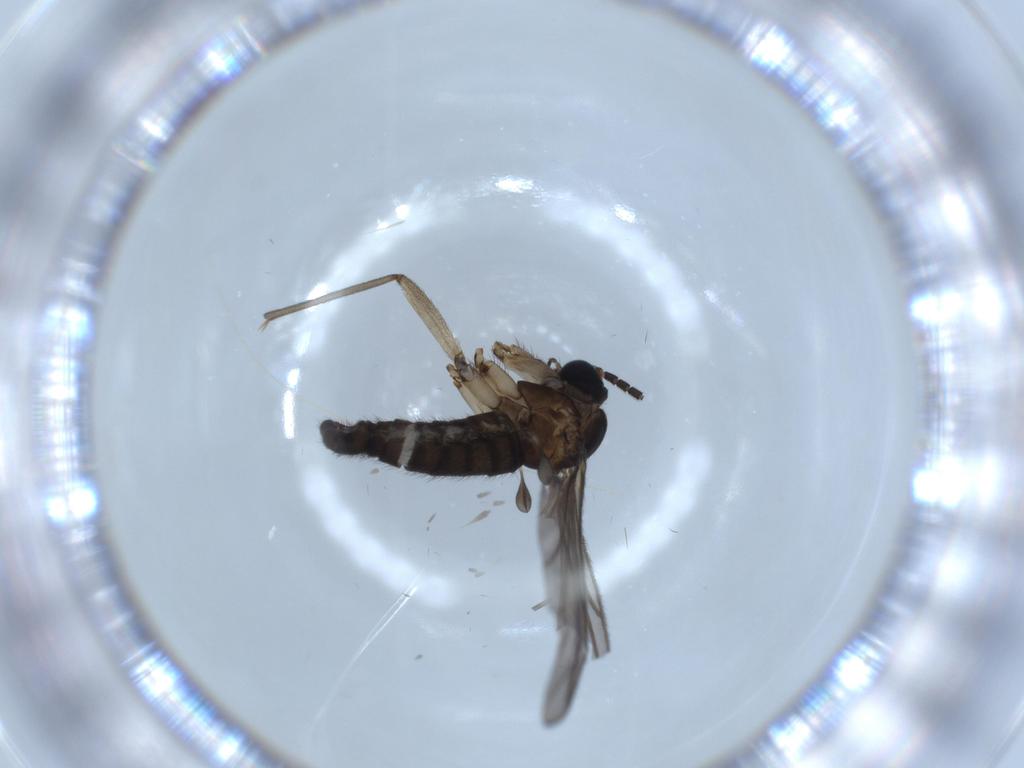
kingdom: Animalia
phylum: Arthropoda
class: Insecta
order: Diptera
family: Sciaridae
